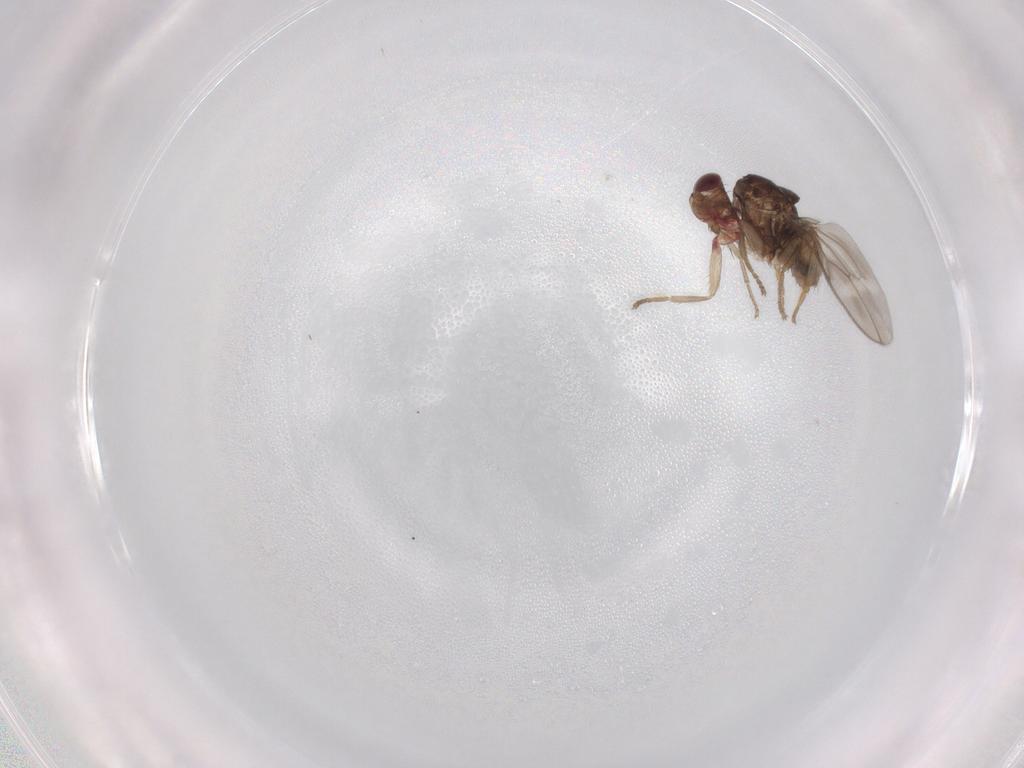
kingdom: Animalia
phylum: Arthropoda
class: Insecta
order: Diptera
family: Sphaeroceridae
